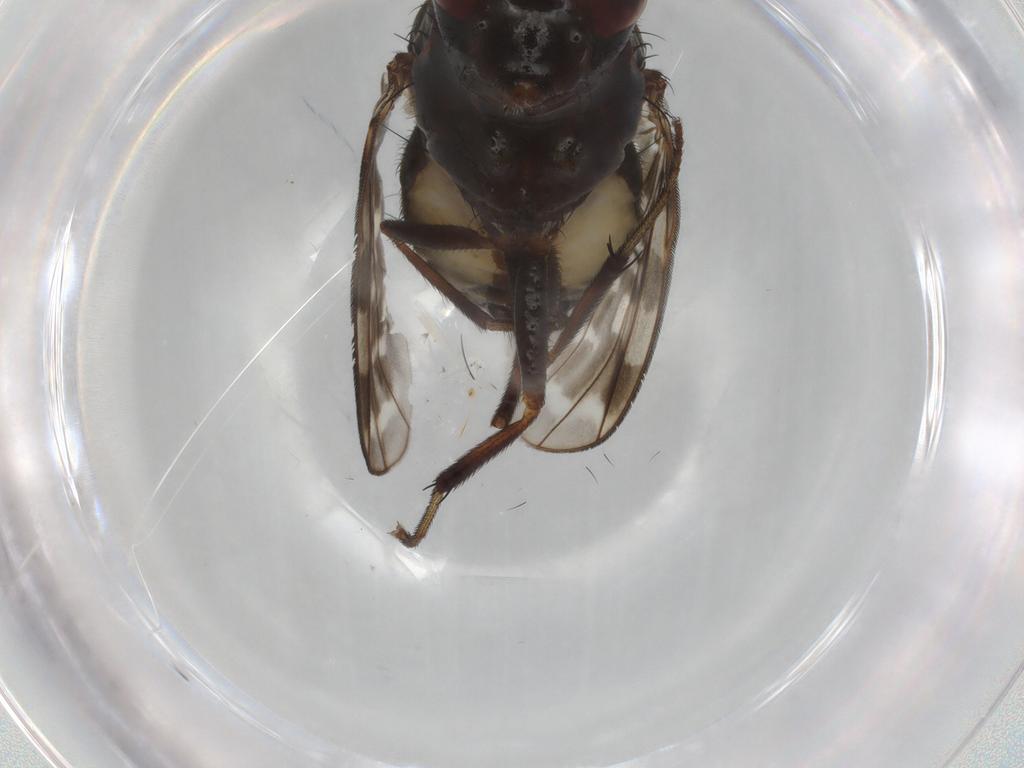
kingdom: Animalia
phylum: Arthropoda
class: Insecta
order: Diptera
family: Lauxaniidae
